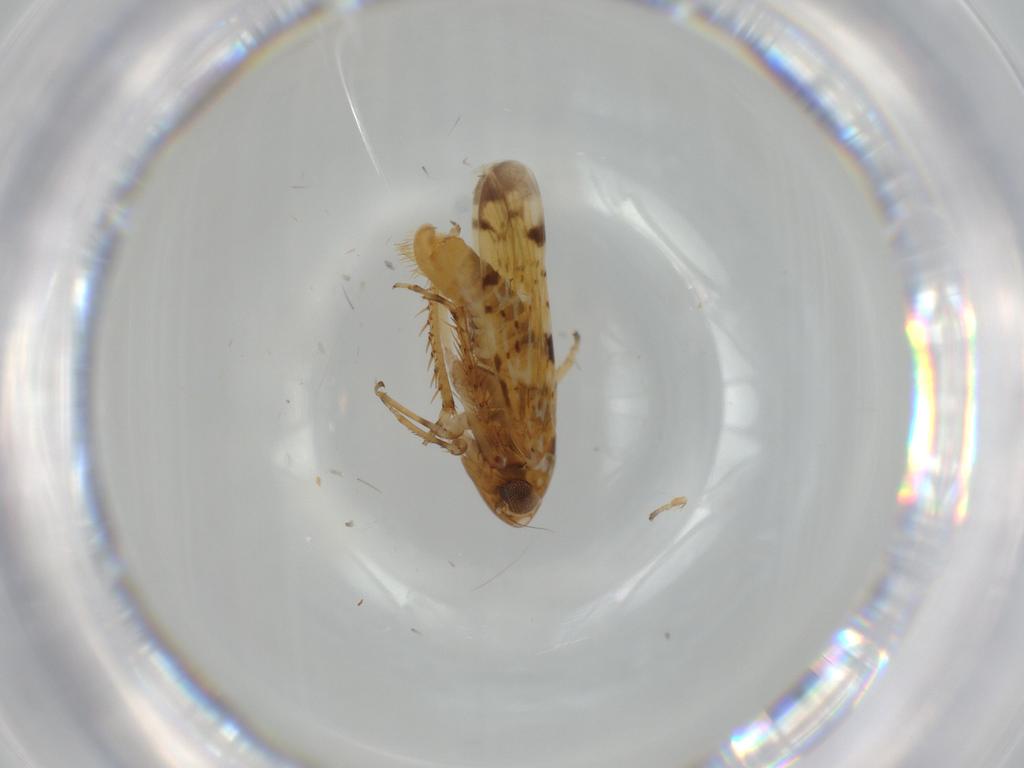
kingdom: Animalia
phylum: Arthropoda
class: Insecta
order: Hemiptera
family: Cicadellidae
